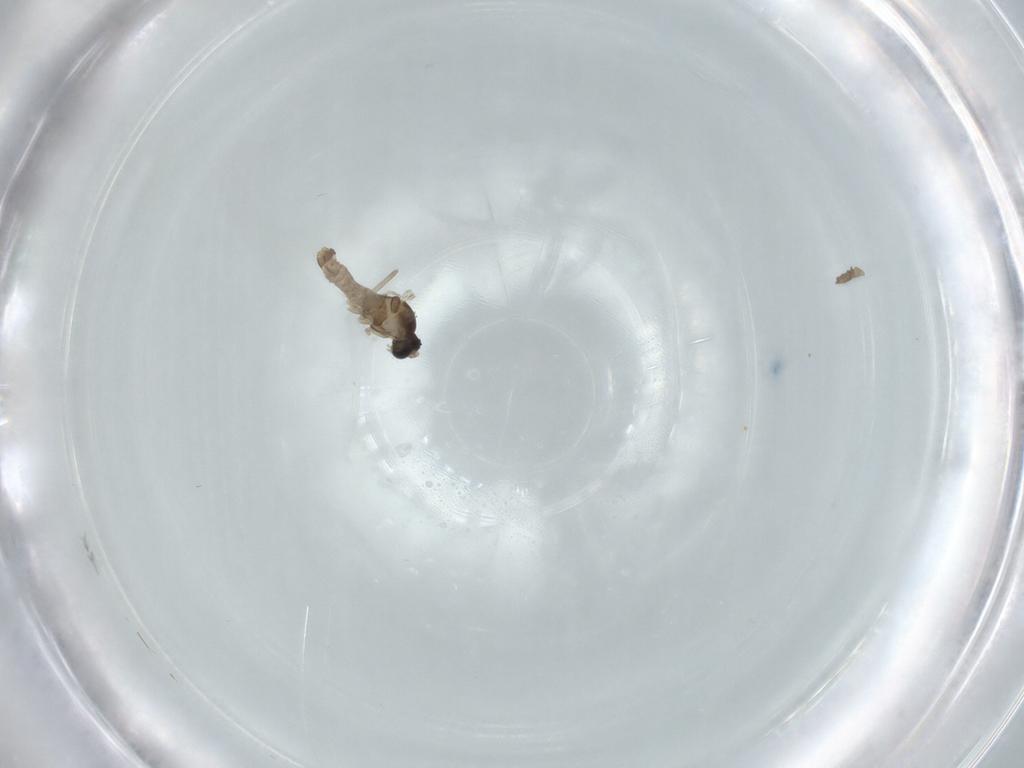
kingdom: Animalia
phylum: Arthropoda
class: Insecta
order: Diptera
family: Cecidomyiidae
